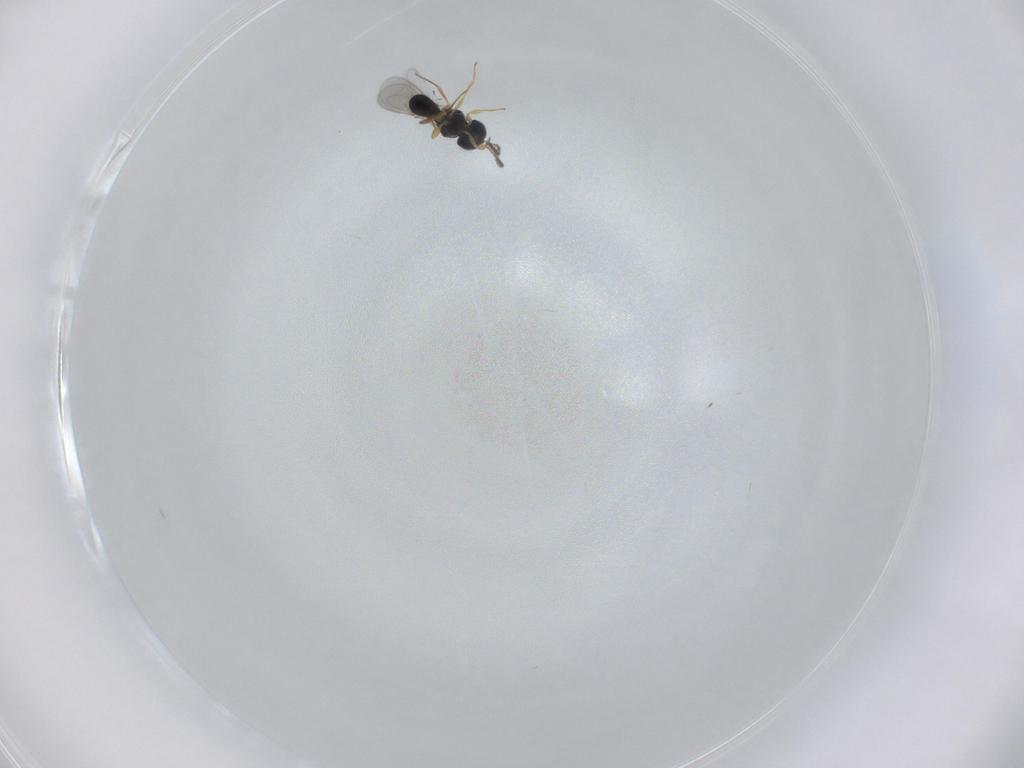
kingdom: Animalia
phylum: Arthropoda
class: Insecta
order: Hymenoptera
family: Scelionidae
